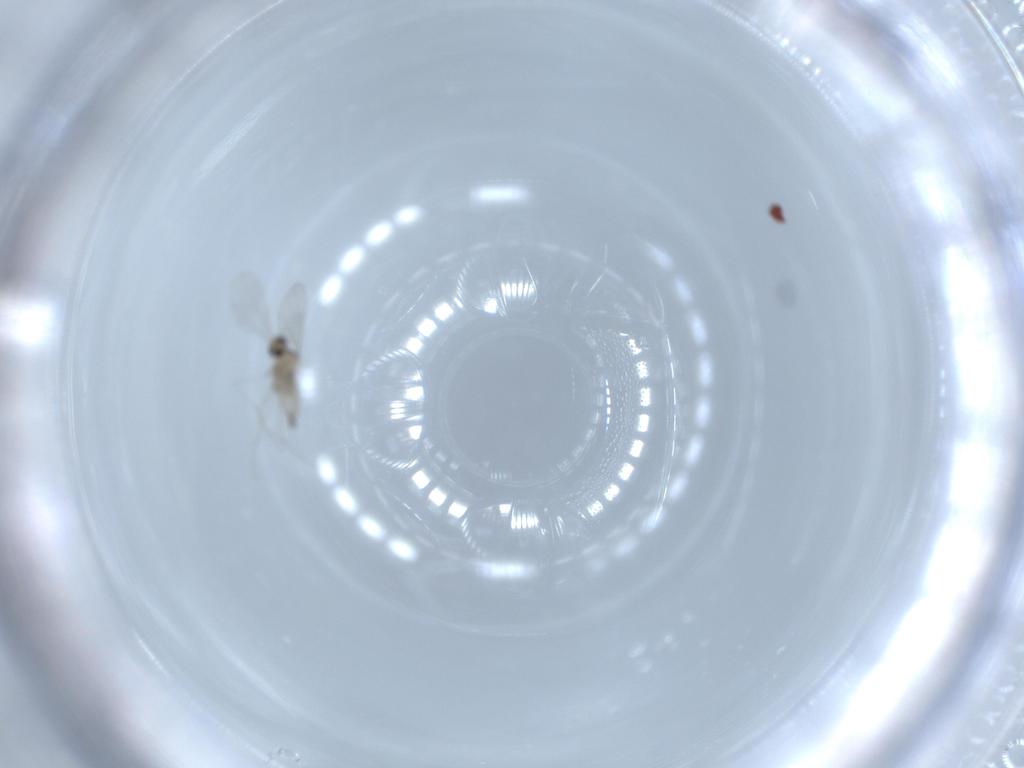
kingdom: Animalia
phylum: Arthropoda
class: Insecta
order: Diptera
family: Cecidomyiidae
